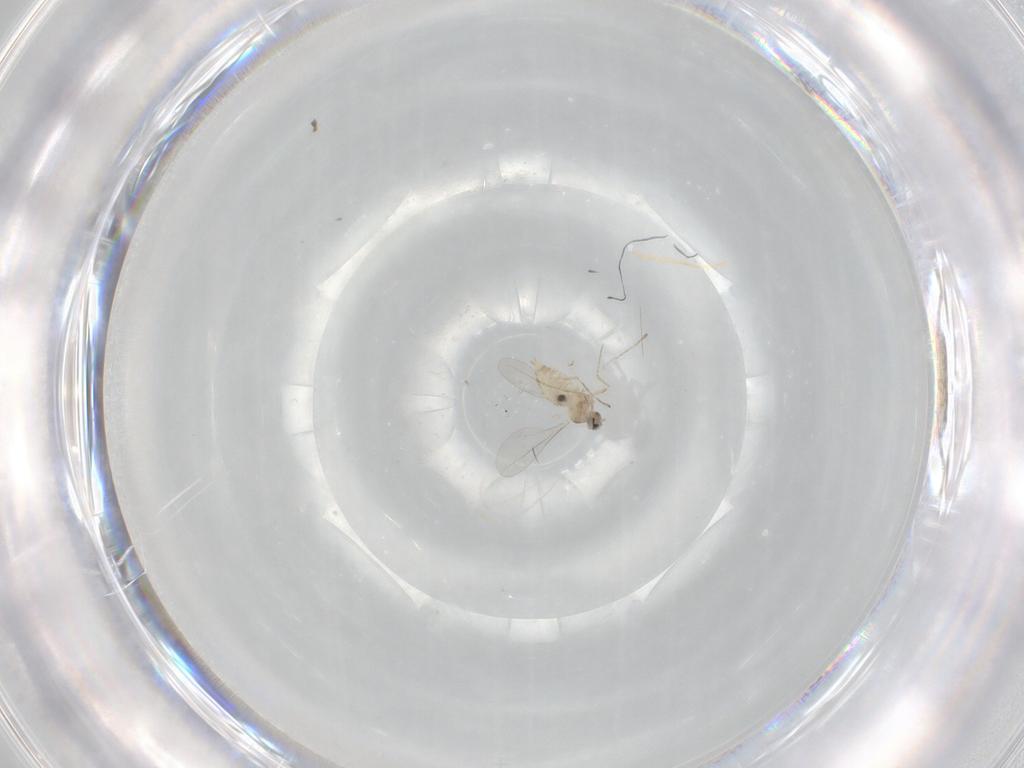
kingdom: Animalia
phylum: Arthropoda
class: Insecta
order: Diptera
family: Cecidomyiidae
